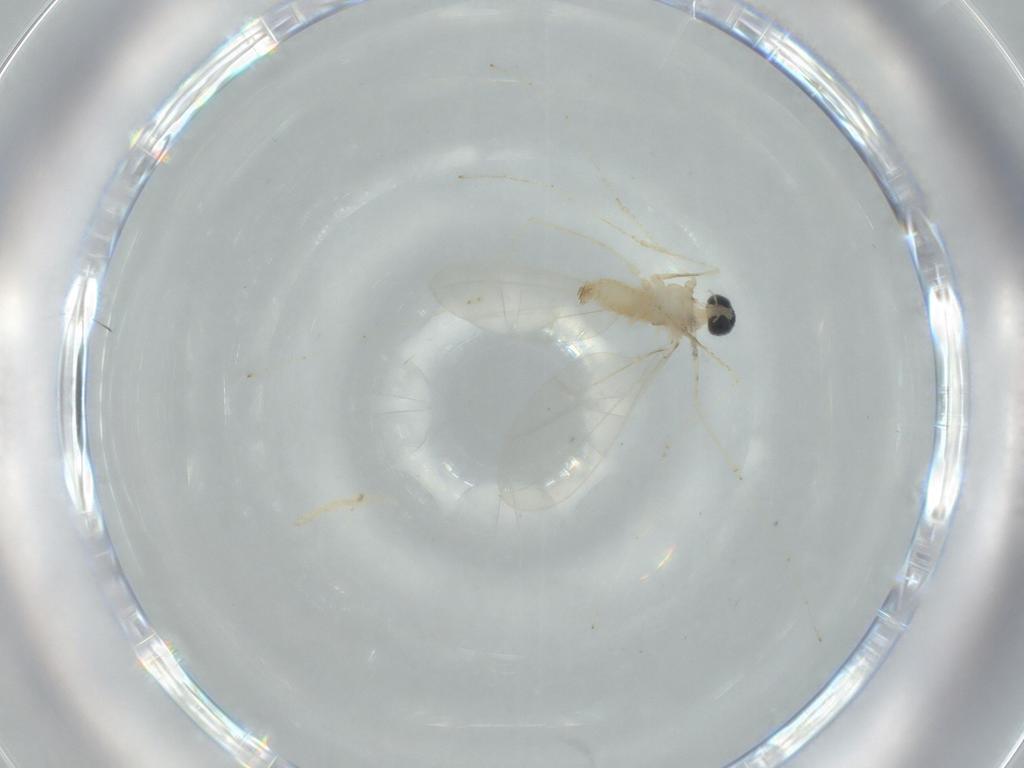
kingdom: Animalia
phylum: Arthropoda
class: Insecta
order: Diptera
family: Cecidomyiidae
